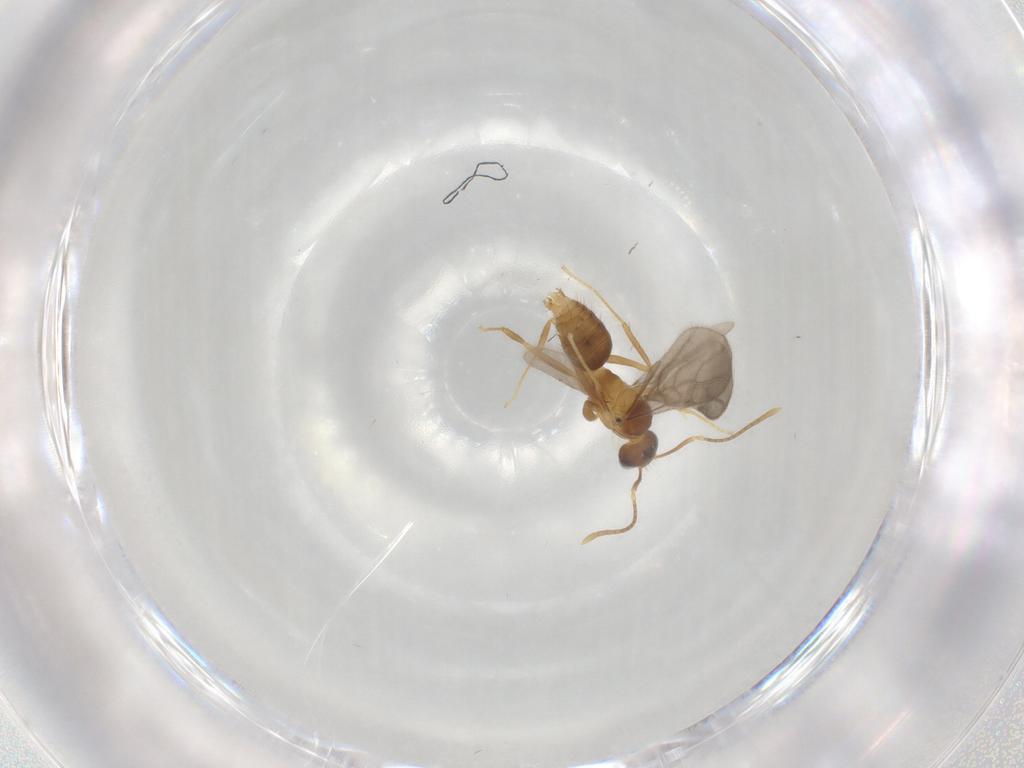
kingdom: Animalia
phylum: Arthropoda
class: Insecta
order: Hymenoptera
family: Formicidae
